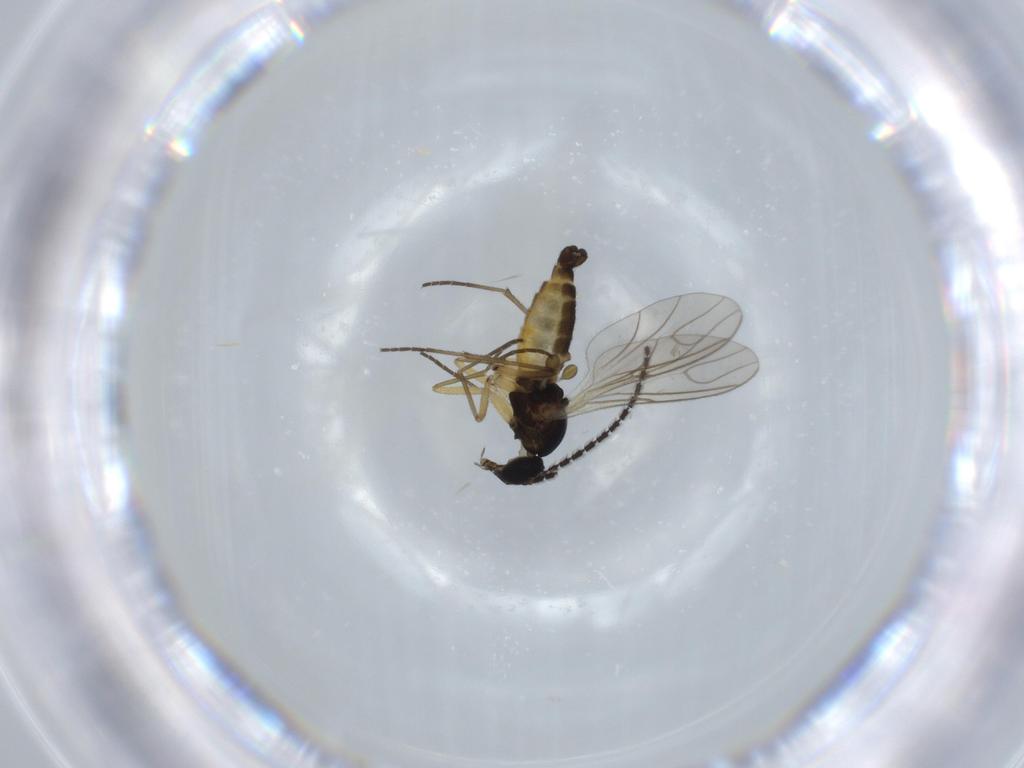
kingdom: Animalia
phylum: Arthropoda
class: Insecta
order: Diptera
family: Sciaridae
